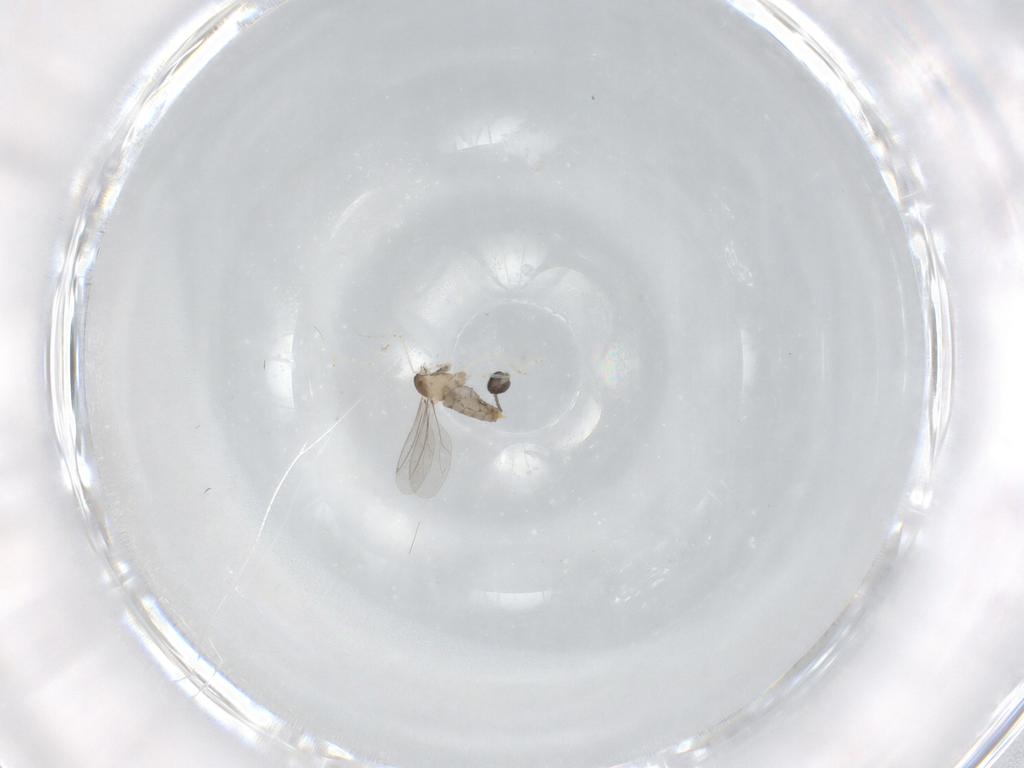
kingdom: Animalia
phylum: Arthropoda
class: Insecta
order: Diptera
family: Cecidomyiidae
